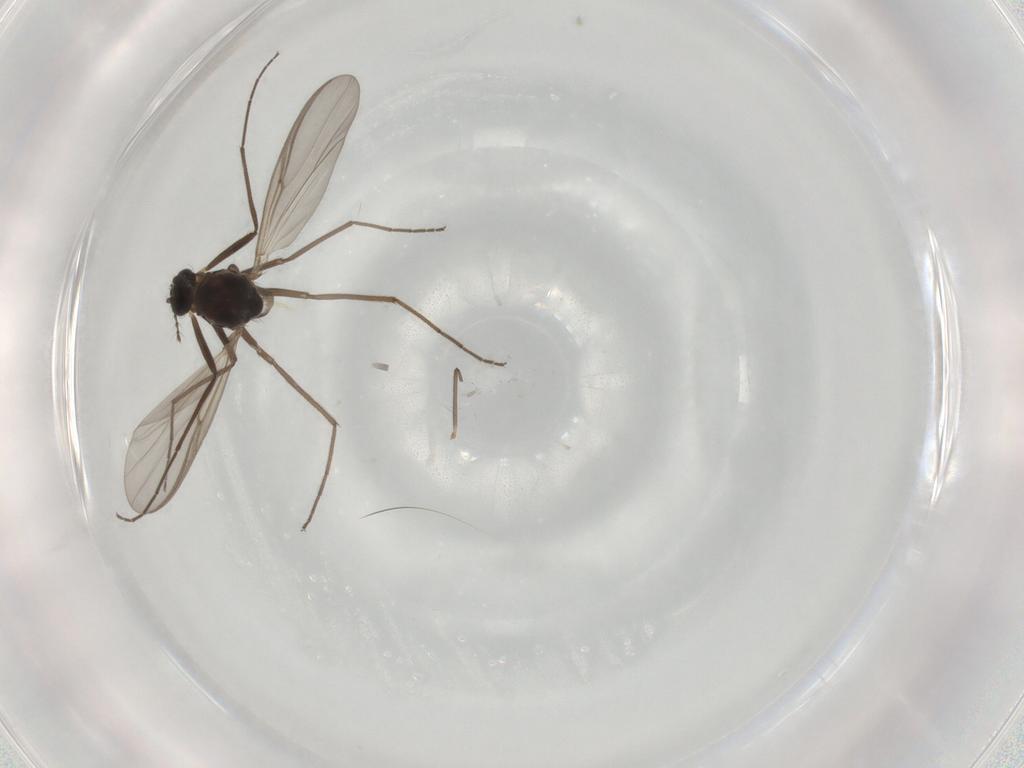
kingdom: Animalia
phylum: Arthropoda
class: Insecta
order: Diptera
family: Chironomidae
